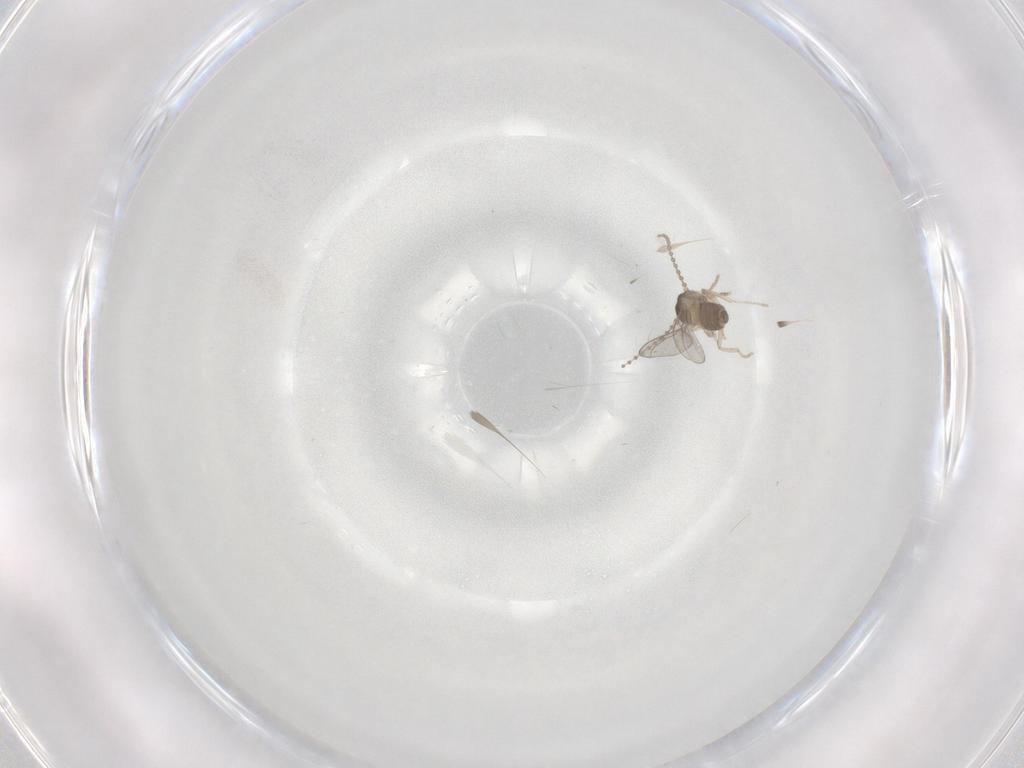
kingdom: Animalia
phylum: Arthropoda
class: Insecta
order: Diptera
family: Cecidomyiidae
